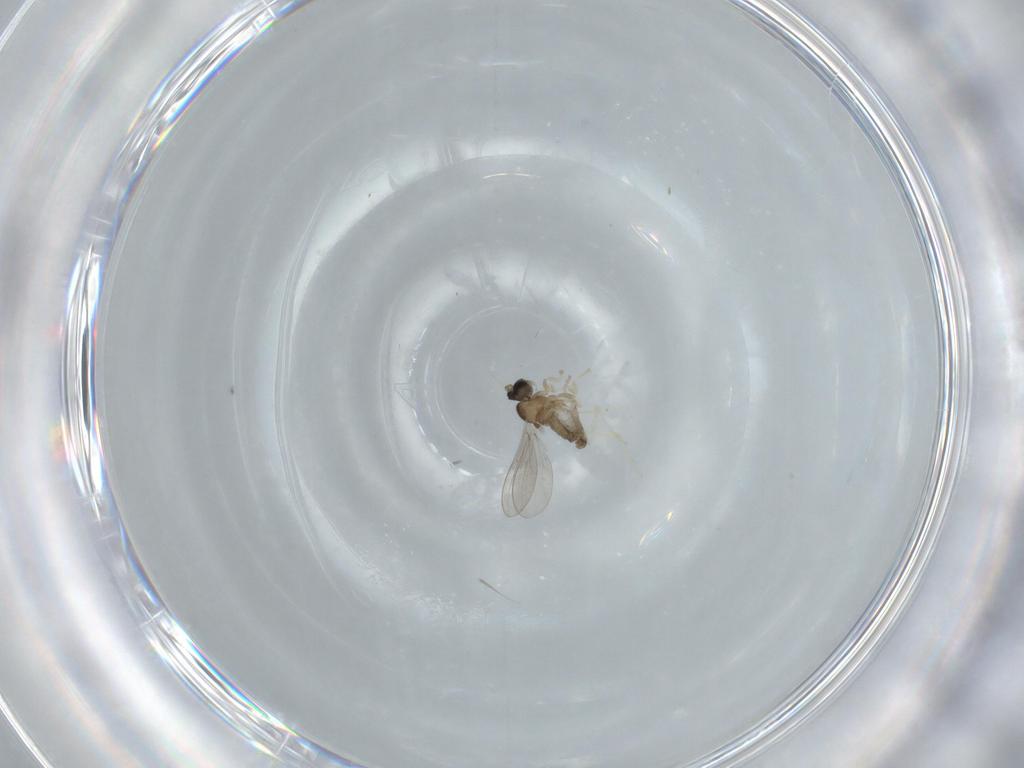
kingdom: Animalia
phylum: Arthropoda
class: Insecta
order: Diptera
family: Cecidomyiidae
